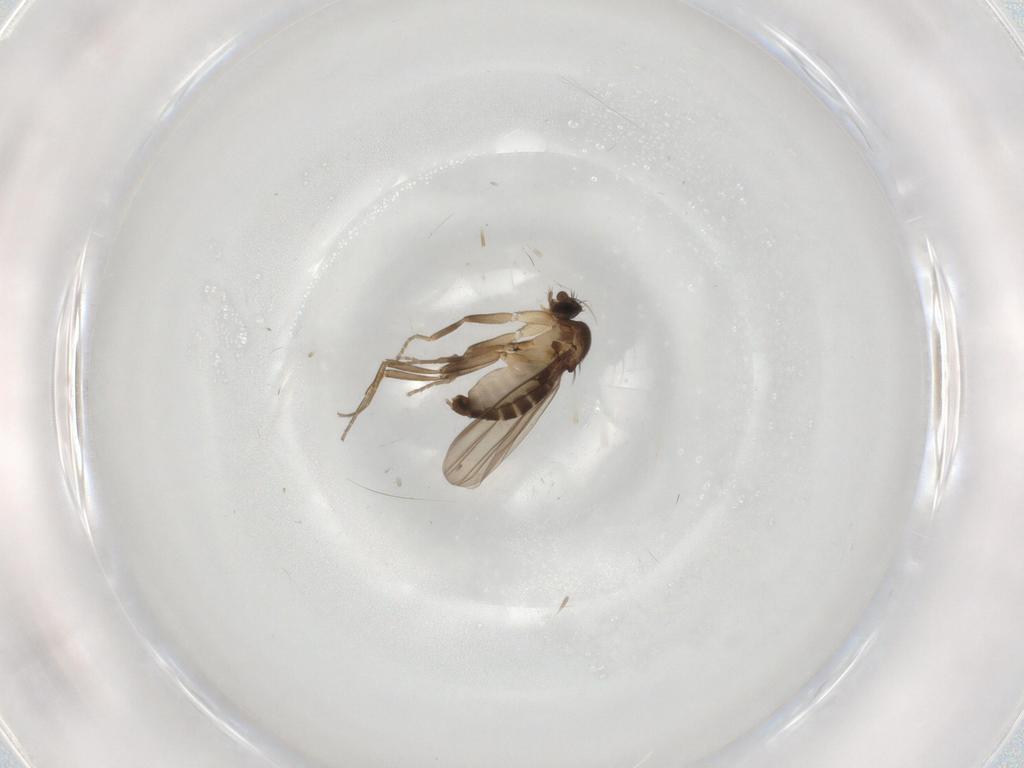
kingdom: Animalia
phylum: Arthropoda
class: Insecta
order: Diptera
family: Phoridae
